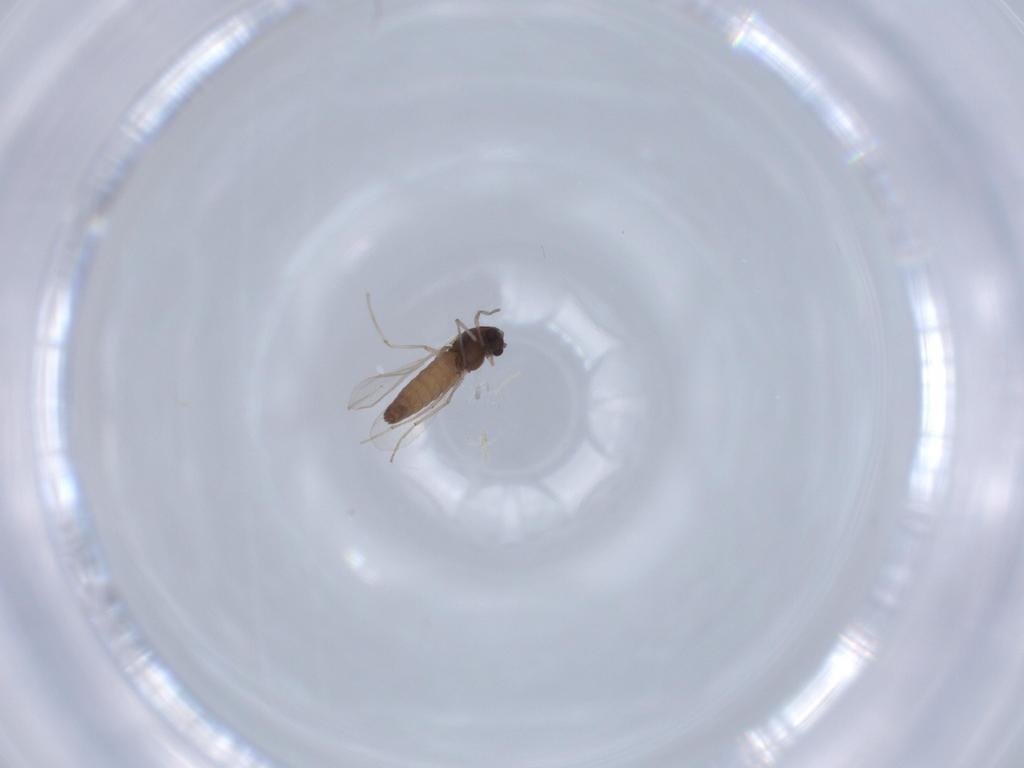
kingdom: Animalia
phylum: Arthropoda
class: Insecta
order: Diptera
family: Chironomidae
